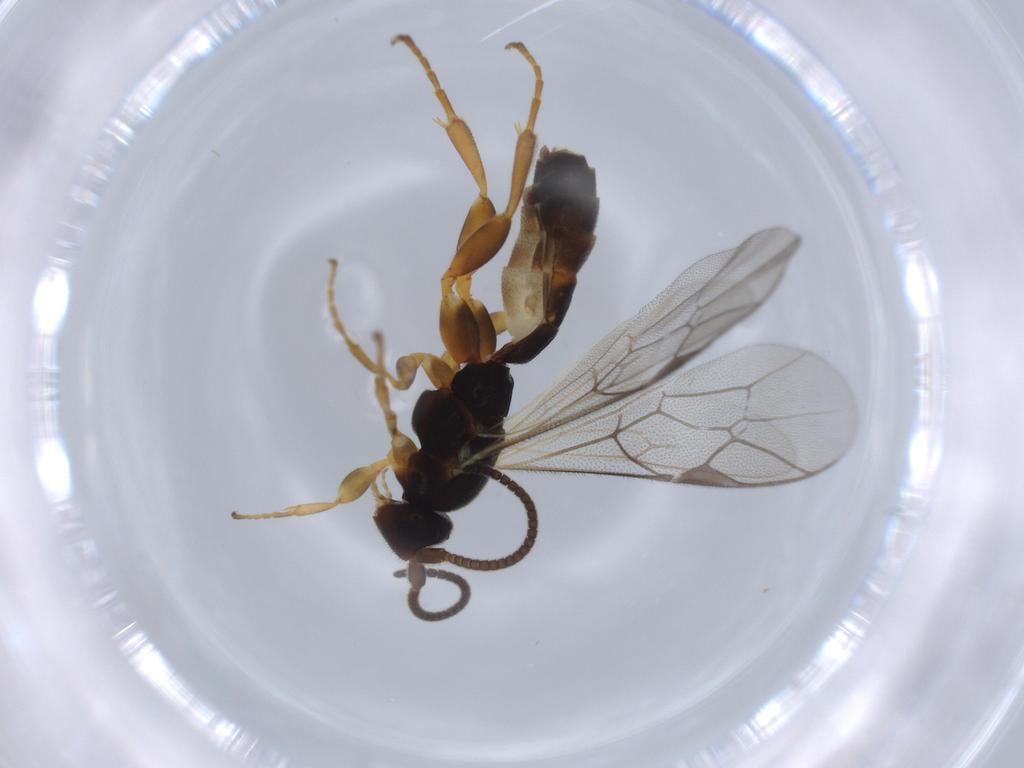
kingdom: Animalia
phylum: Arthropoda
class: Insecta
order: Hymenoptera
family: Ichneumonidae
